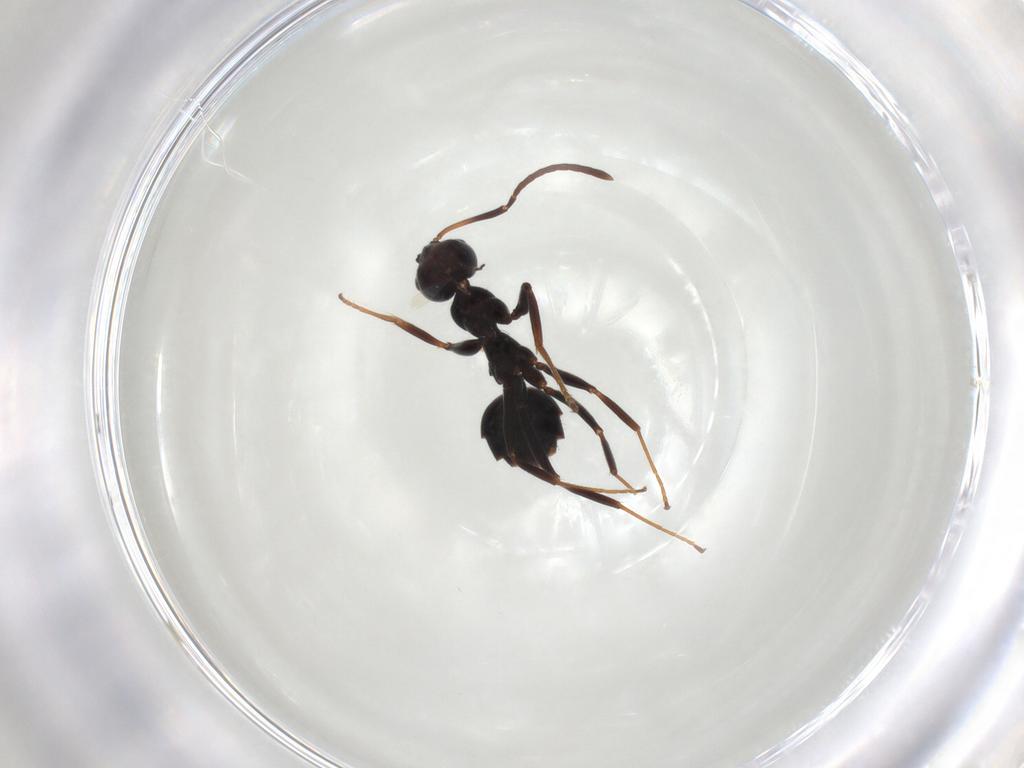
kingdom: Animalia
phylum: Arthropoda
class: Insecta
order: Hymenoptera
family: Formicidae
